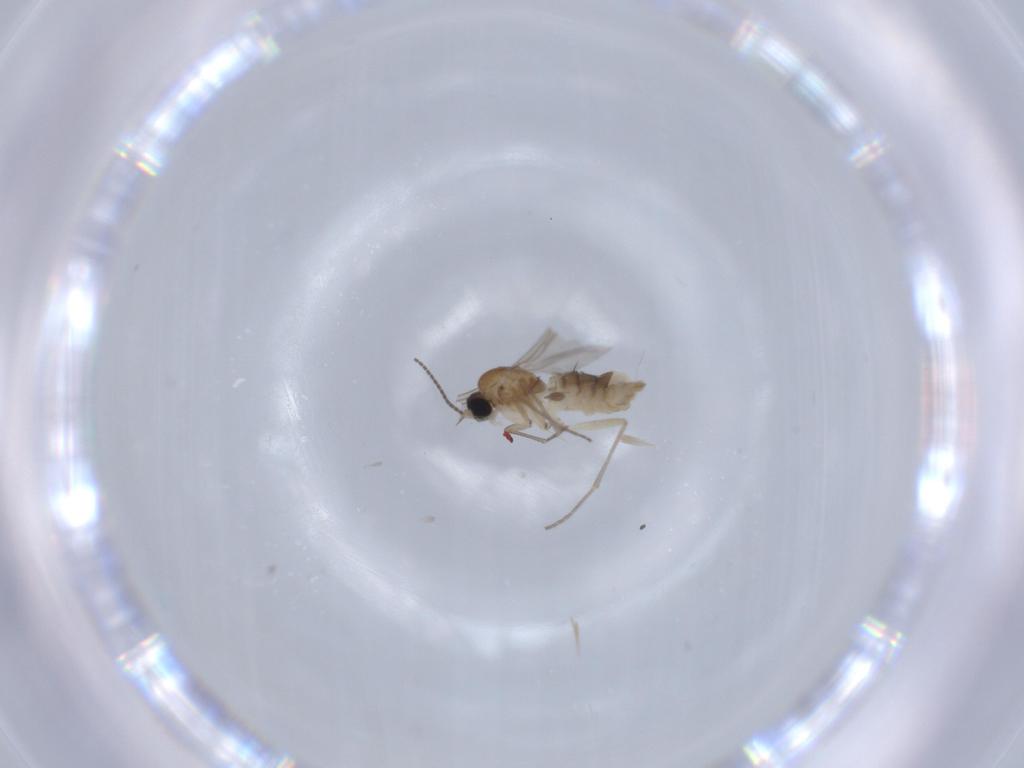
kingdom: Animalia
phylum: Arthropoda
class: Insecta
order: Diptera
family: Sciaridae
